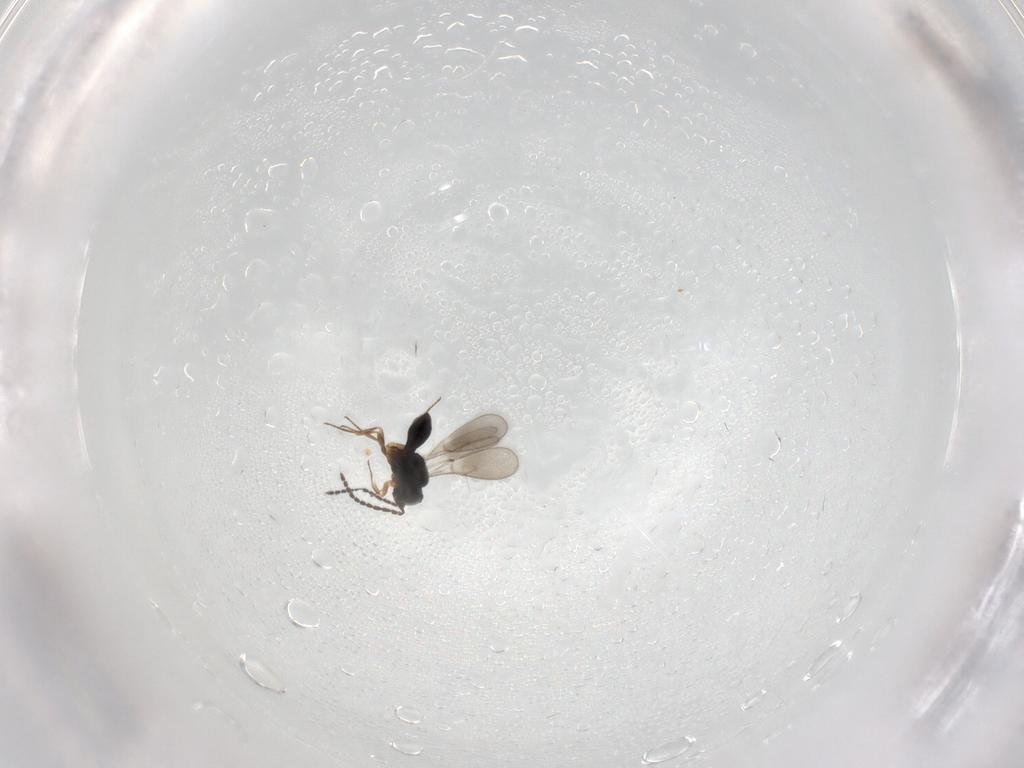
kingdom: Animalia
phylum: Arthropoda
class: Insecta
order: Hymenoptera
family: Scelionidae
